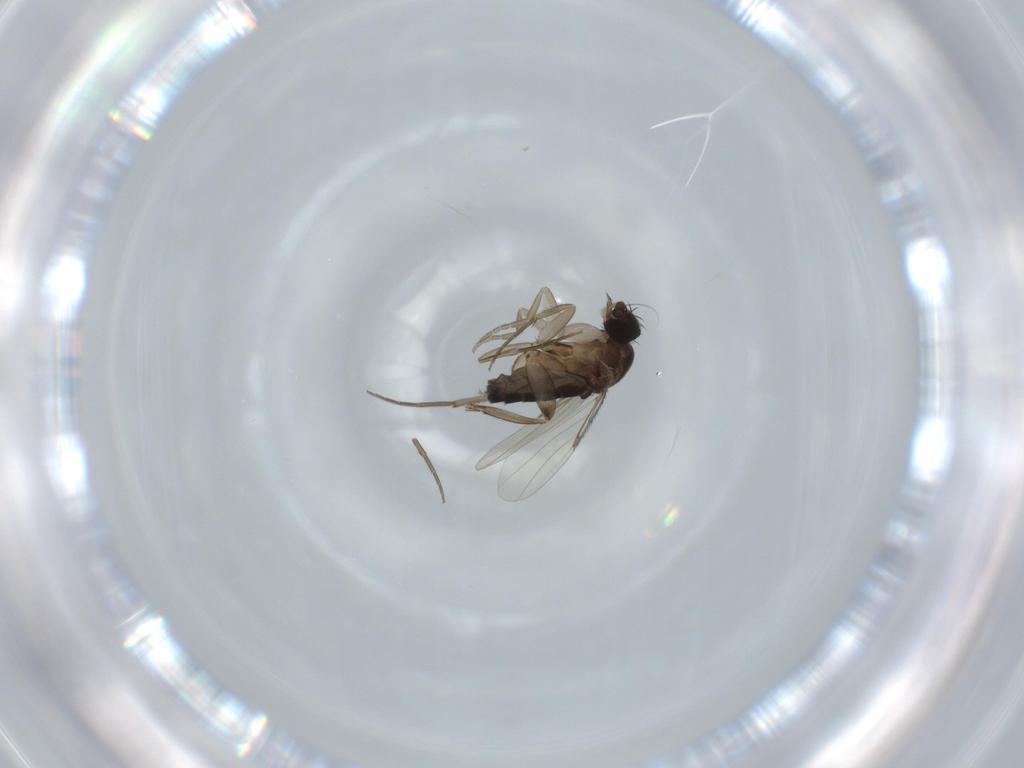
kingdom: Animalia
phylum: Arthropoda
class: Insecta
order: Diptera
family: Phoridae
